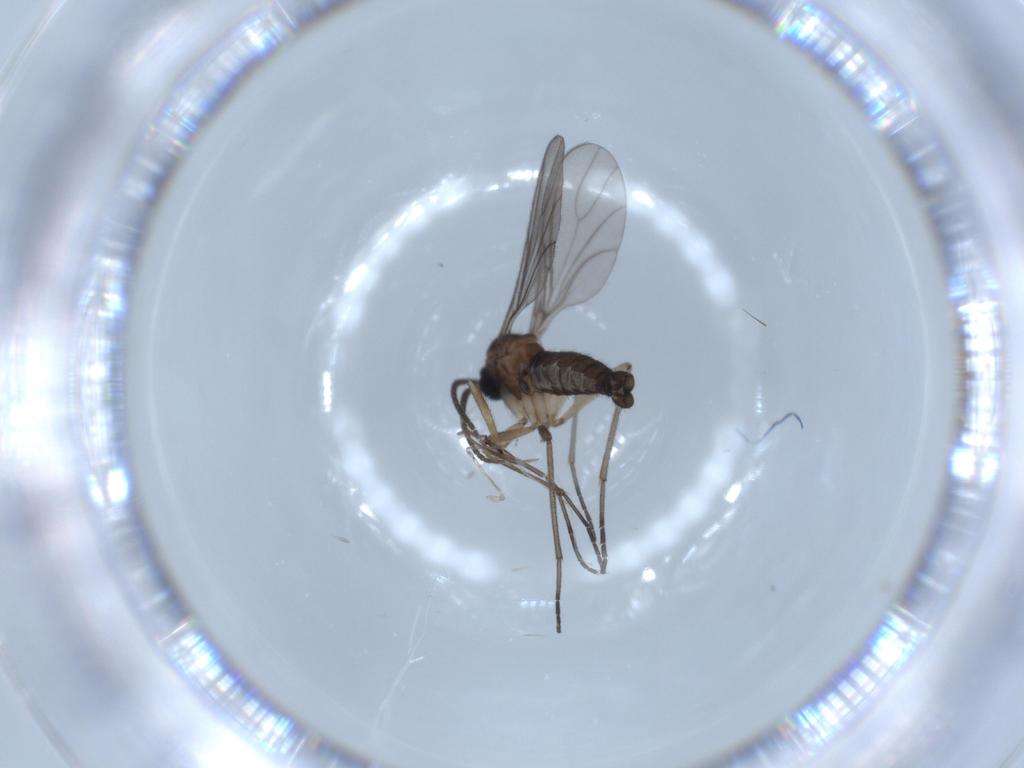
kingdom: Animalia
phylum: Arthropoda
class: Insecta
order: Diptera
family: Sciaridae
